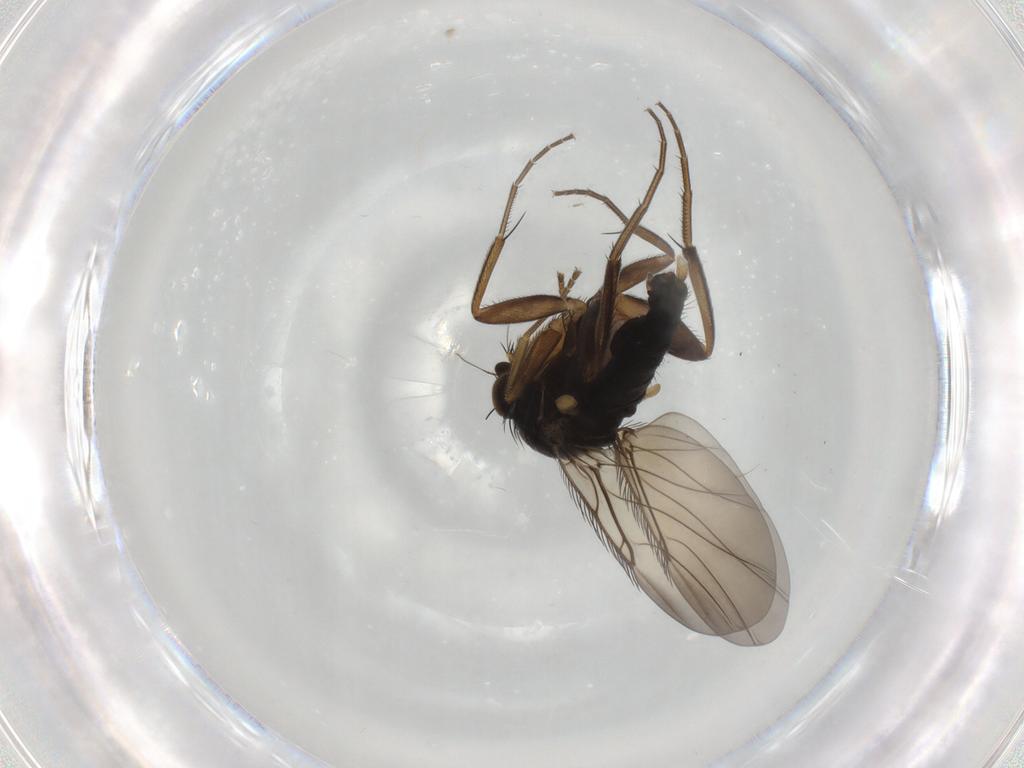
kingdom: Animalia
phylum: Arthropoda
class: Insecta
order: Diptera
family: Phoridae
